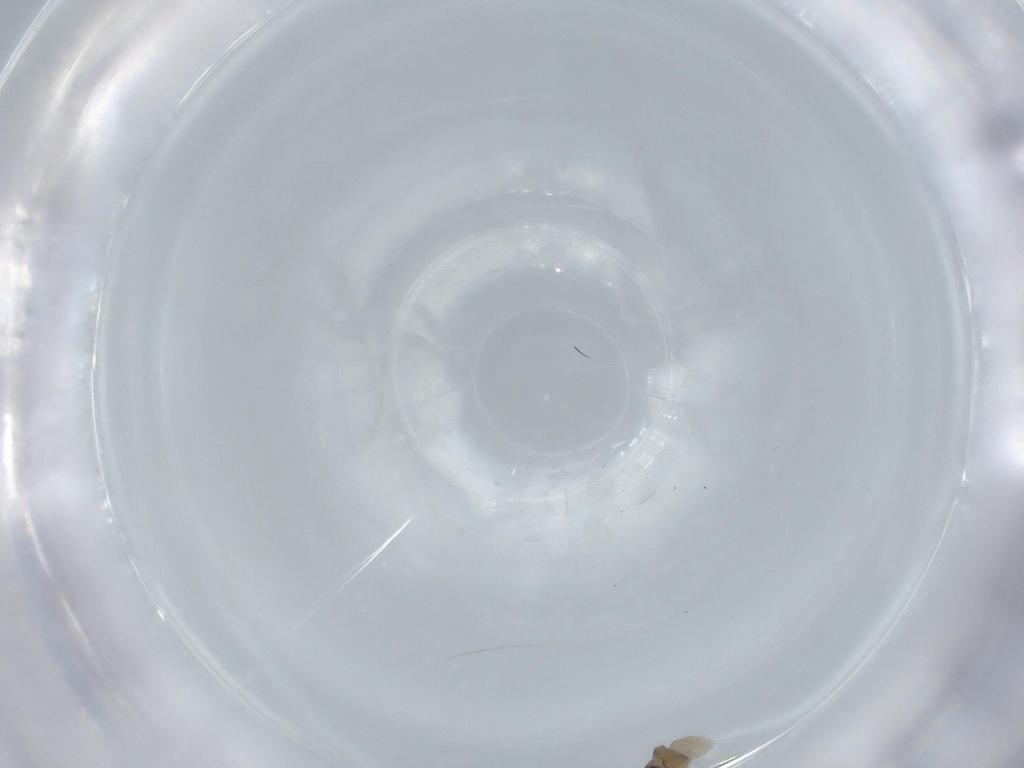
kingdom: Animalia
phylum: Arthropoda
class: Insecta
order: Diptera
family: Cecidomyiidae
